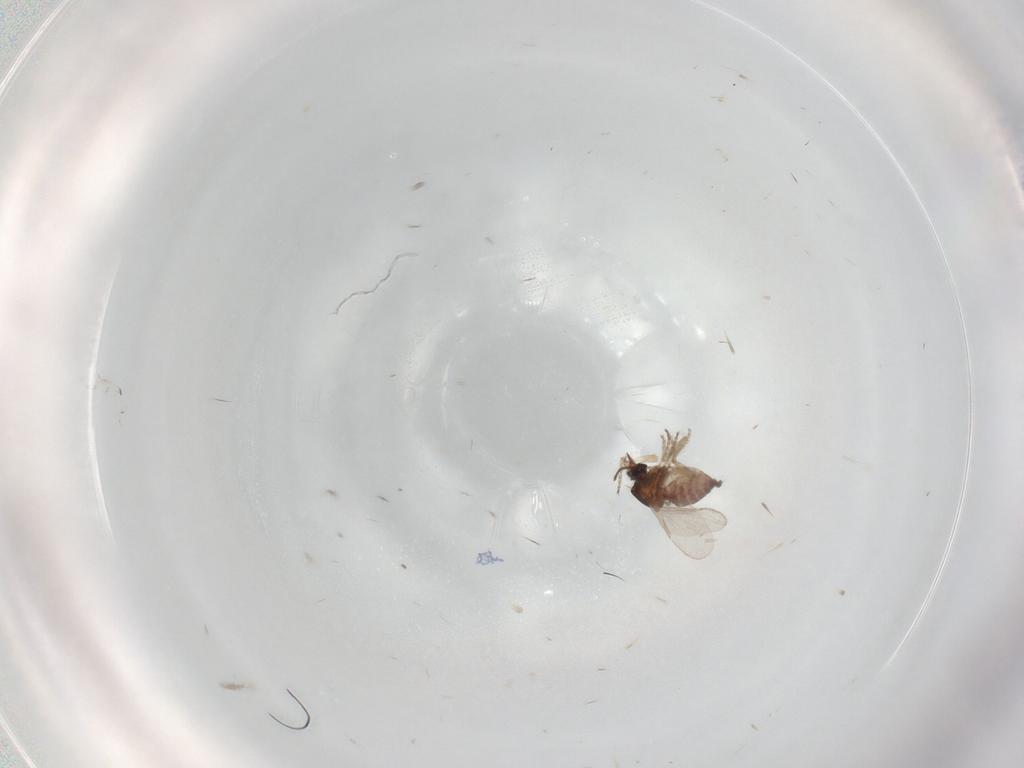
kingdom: Animalia
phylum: Arthropoda
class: Insecta
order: Diptera
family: Ceratopogonidae
